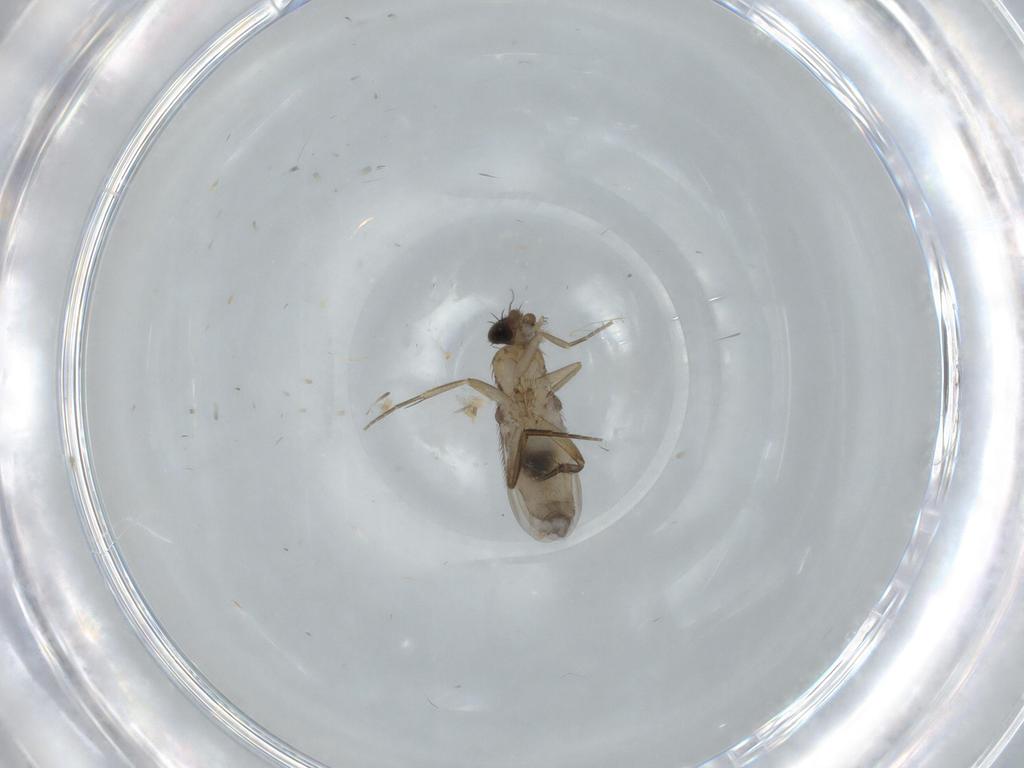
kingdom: Animalia
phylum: Arthropoda
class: Insecta
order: Diptera
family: Phoridae
